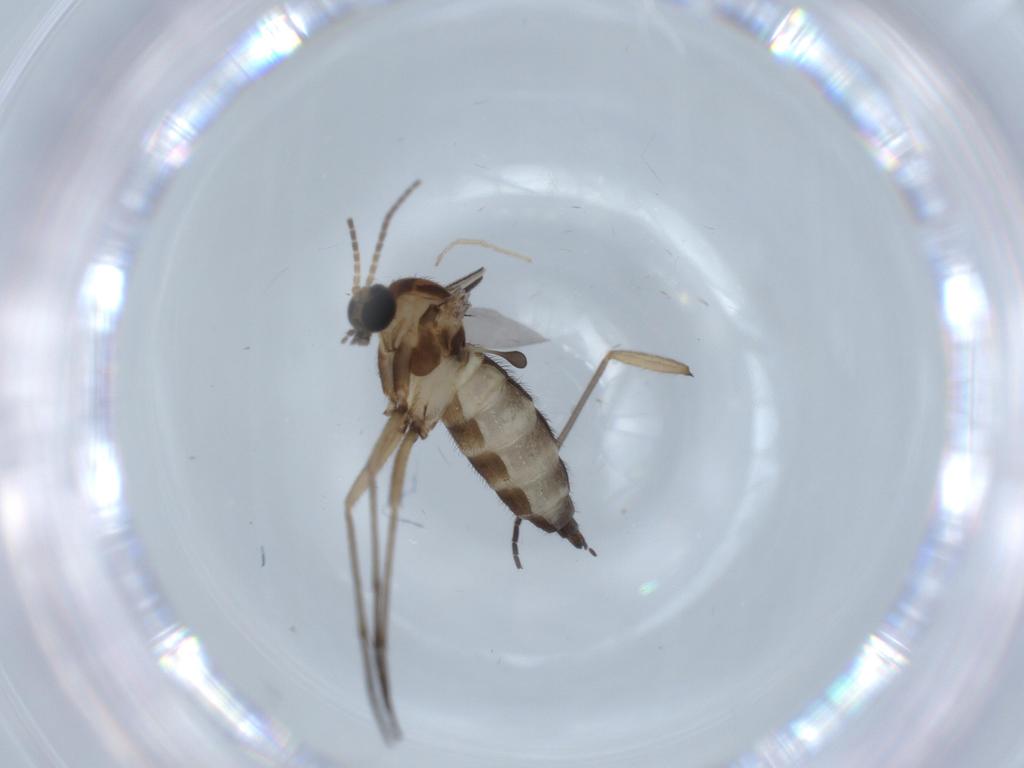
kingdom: Animalia
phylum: Arthropoda
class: Insecta
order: Diptera
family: Sciaridae
